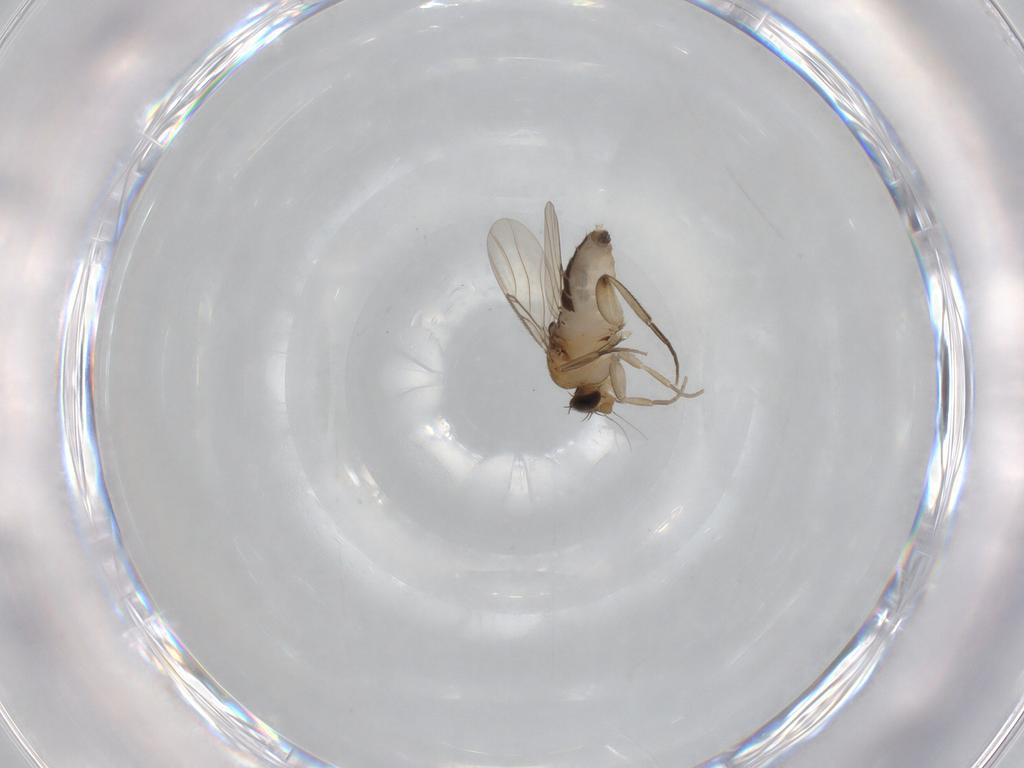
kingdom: Animalia
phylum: Arthropoda
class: Insecta
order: Diptera
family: Phoridae
